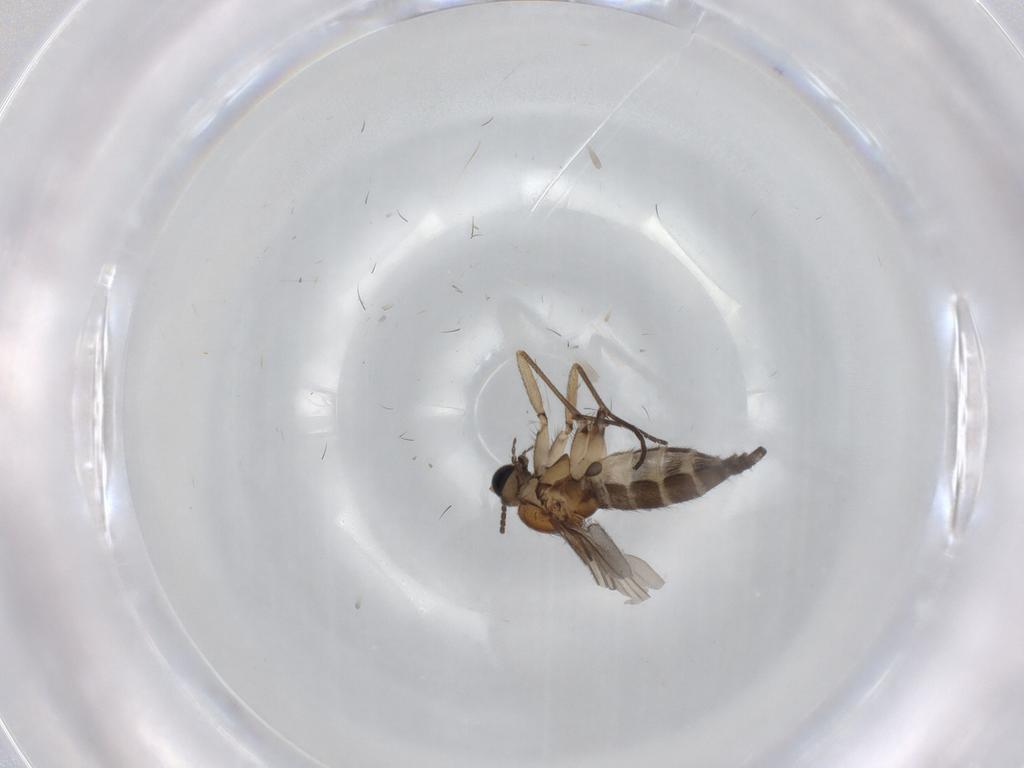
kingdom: Animalia
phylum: Arthropoda
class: Insecta
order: Diptera
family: Sciaridae
